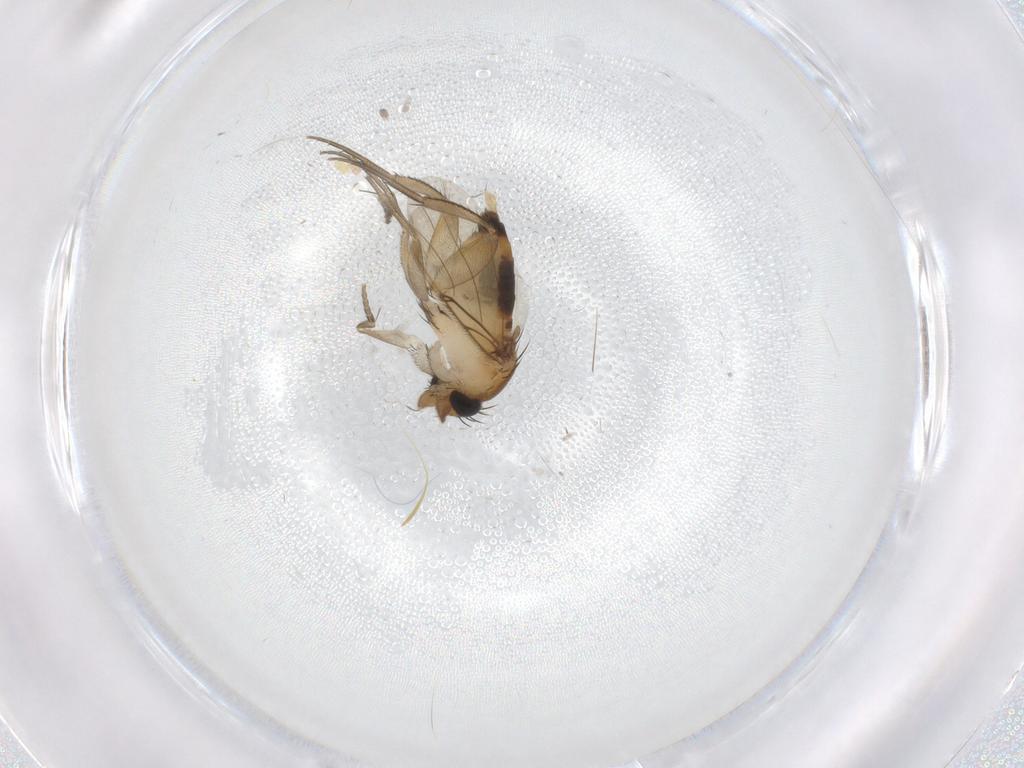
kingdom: Animalia
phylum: Arthropoda
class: Insecta
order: Diptera
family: Phoridae
